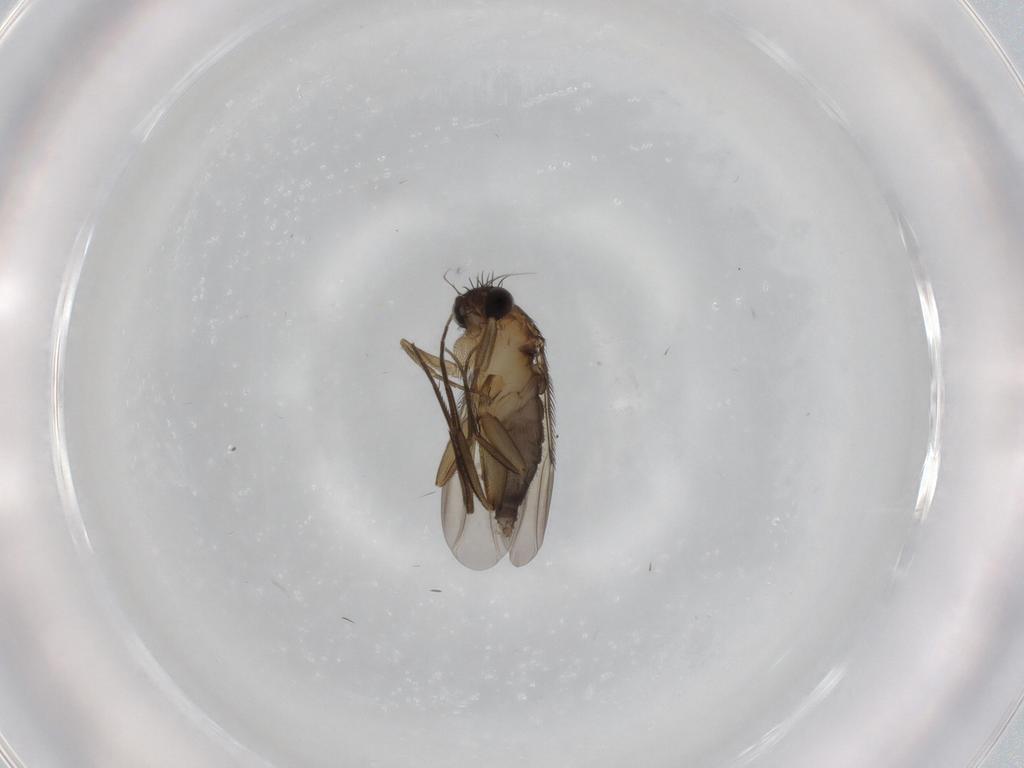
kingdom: Animalia
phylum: Arthropoda
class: Insecta
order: Diptera
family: Phoridae
